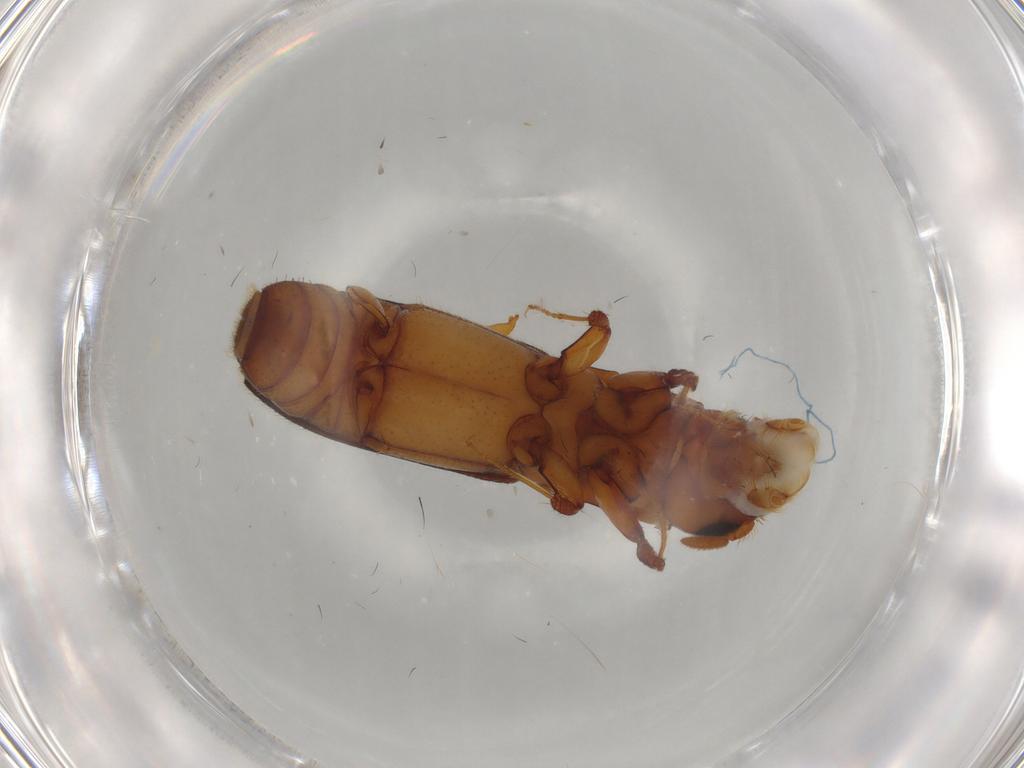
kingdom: Animalia
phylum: Arthropoda
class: Insecta
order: Coleoptera
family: Curculionidae
